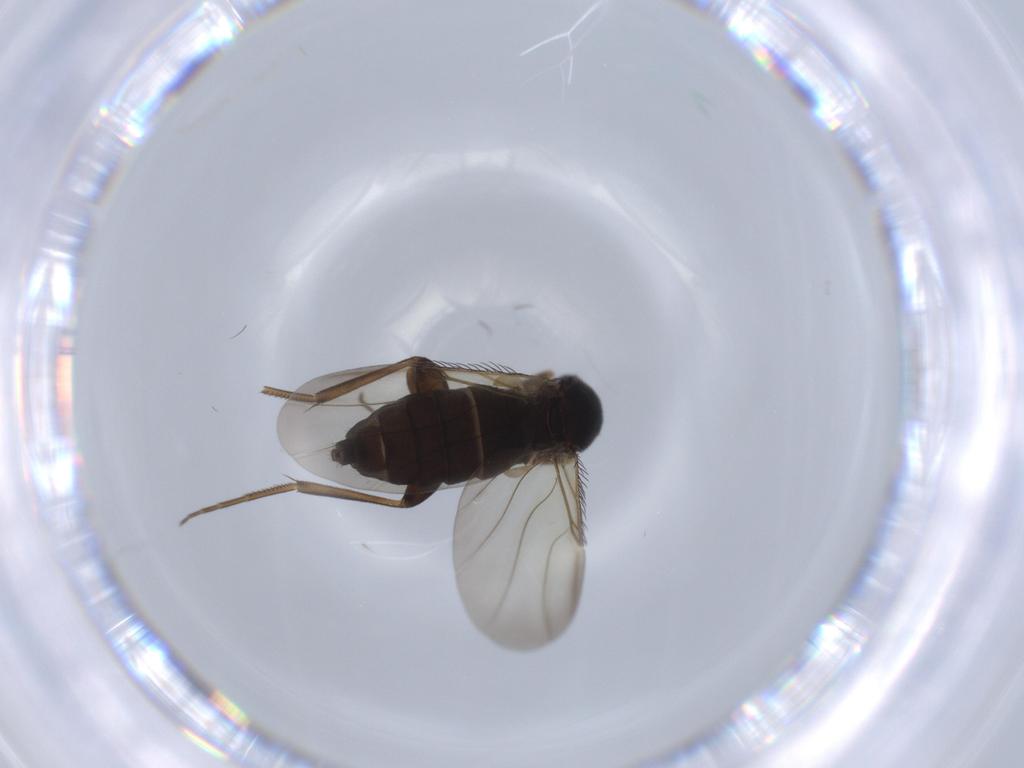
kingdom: Animalia
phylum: Arthropoda
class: Insecta
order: Diptera
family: Phoridae
